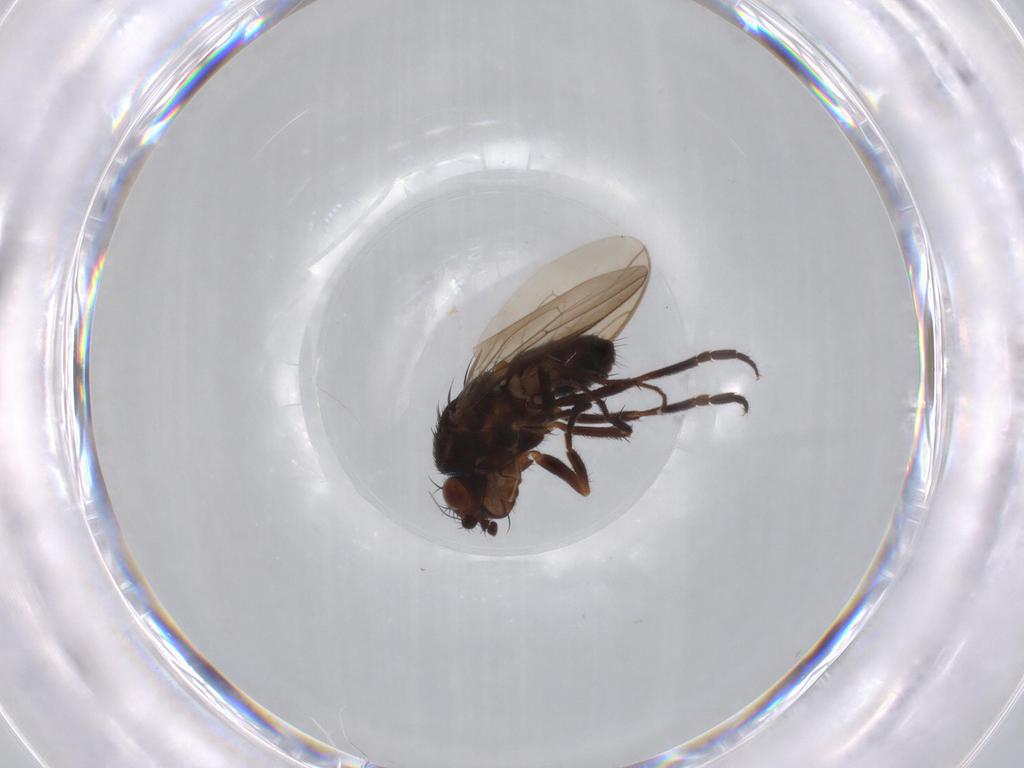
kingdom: Animalia
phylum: Arthropoda
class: Insecta
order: Diptera
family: Sphaeroceridae
